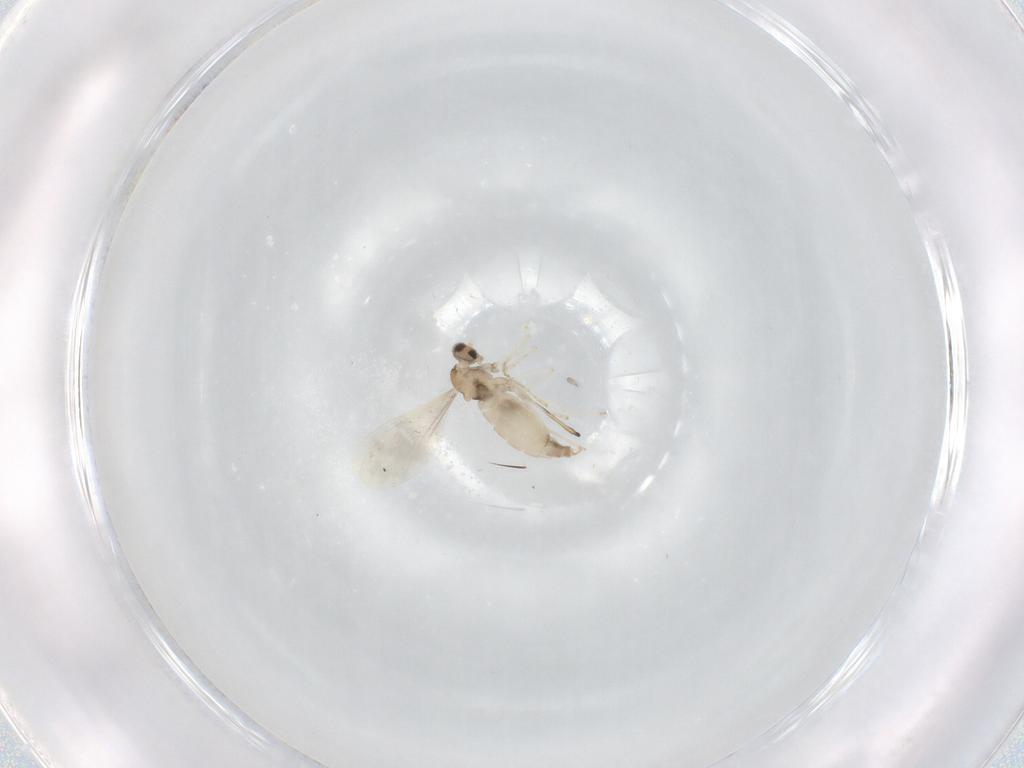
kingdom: Animalia
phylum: Arthropoda
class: Insecta
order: Diptera
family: Cecidomyiidae
